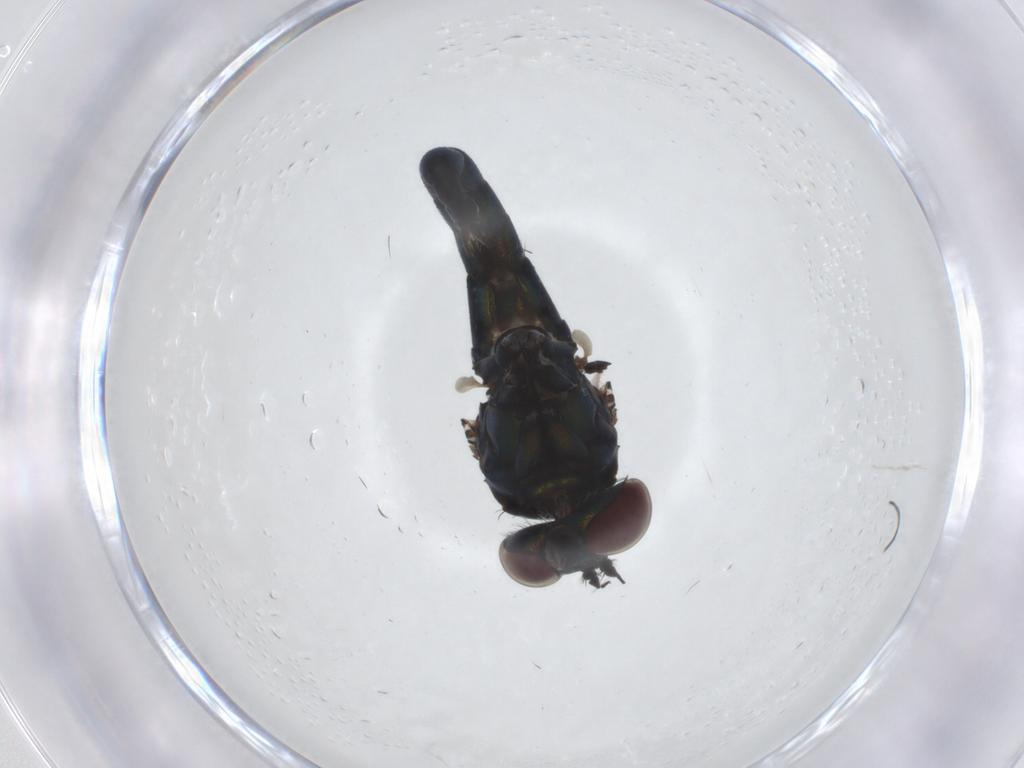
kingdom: Animalia
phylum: Arthropoda
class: Insecta
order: Diptera
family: Dolichopodidae
